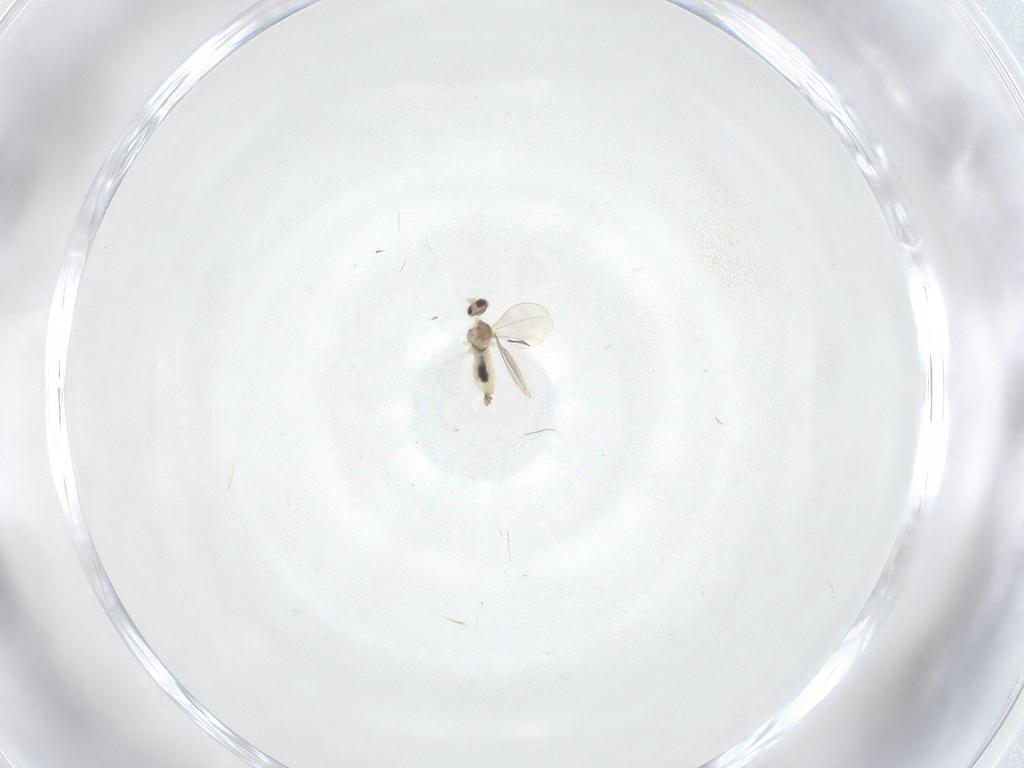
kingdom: Animalia
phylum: Arthropoda
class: Insecta
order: Diptera
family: Cecidomyiidae
